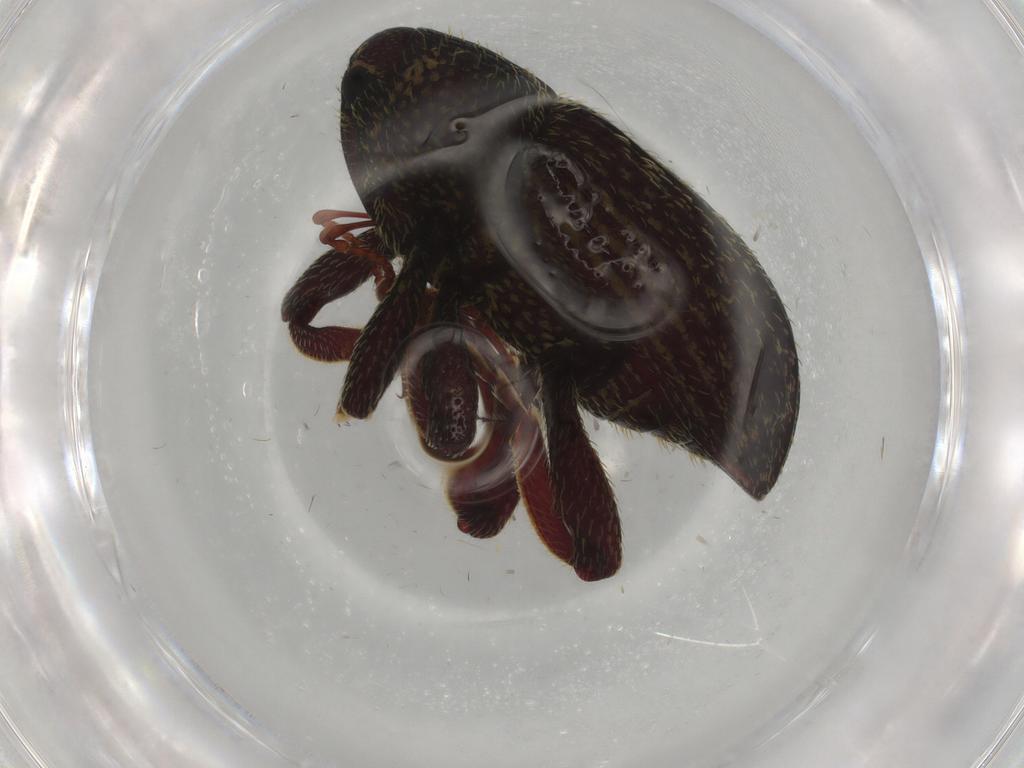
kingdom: Animalia
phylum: Arthropoda
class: Insecta
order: Coleoptera
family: Curculionidae
